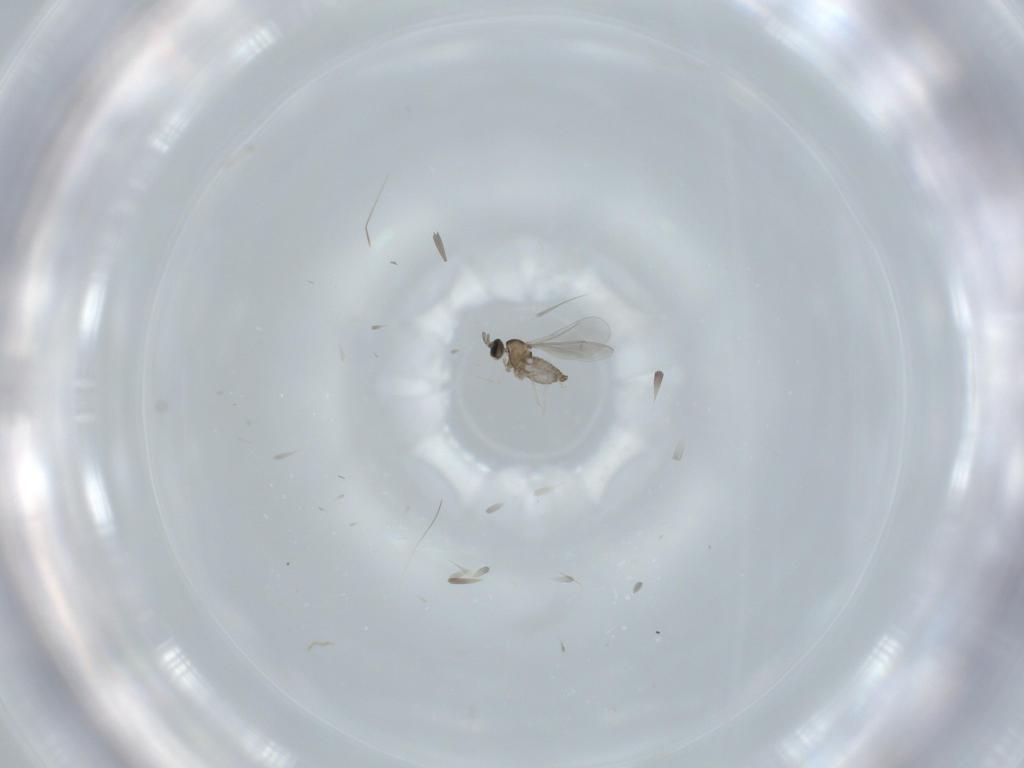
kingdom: Animalia
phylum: Arthropoda
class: Insecta
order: Diptera
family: Cecidomyiidae
